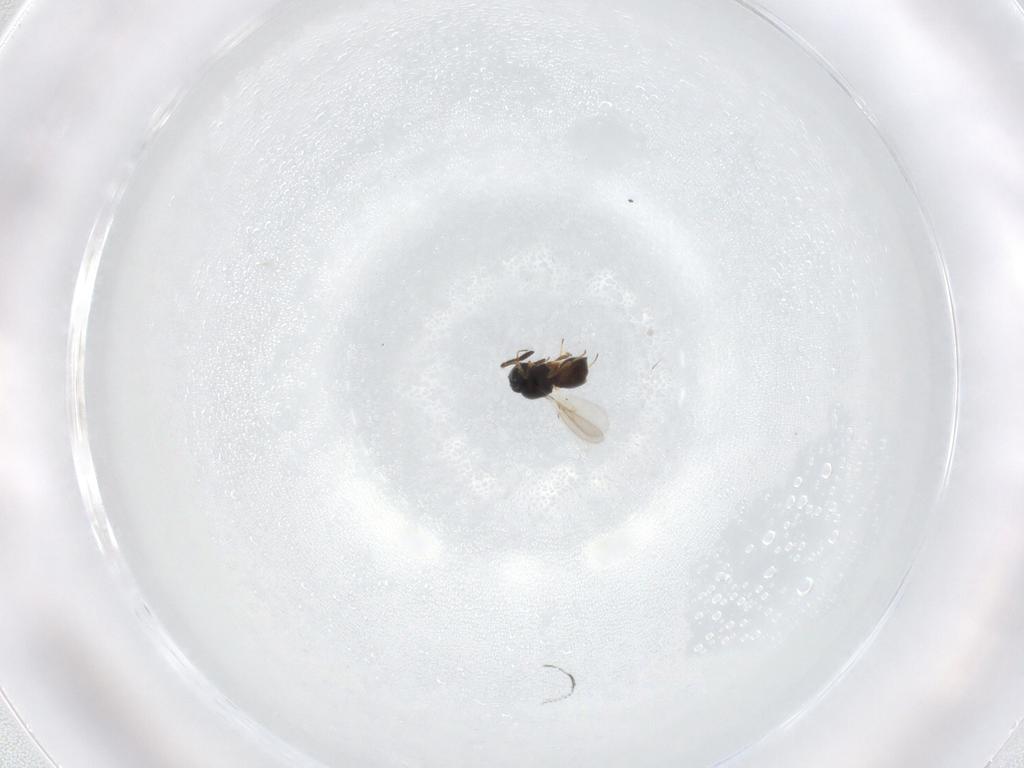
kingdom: Animalia
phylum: Arthropoda
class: Insecta
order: Hymenoptera
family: Scelionidae
